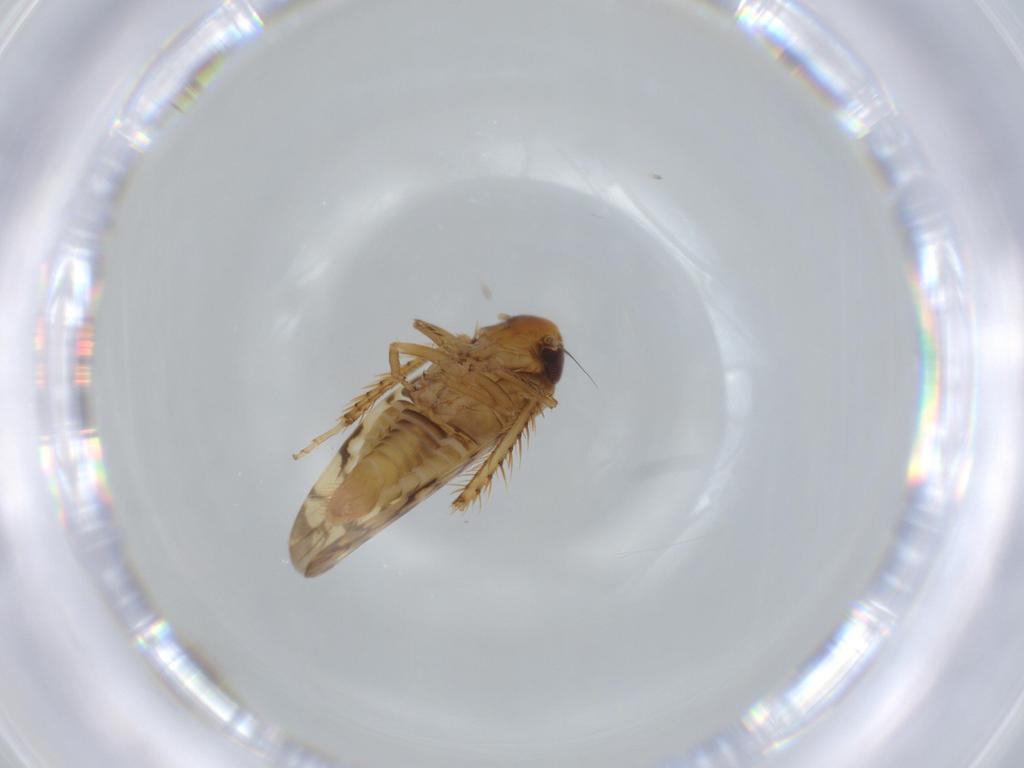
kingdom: Animalia
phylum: Arthropoda
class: Insecta
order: Hemiptera
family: Cicadellidae
